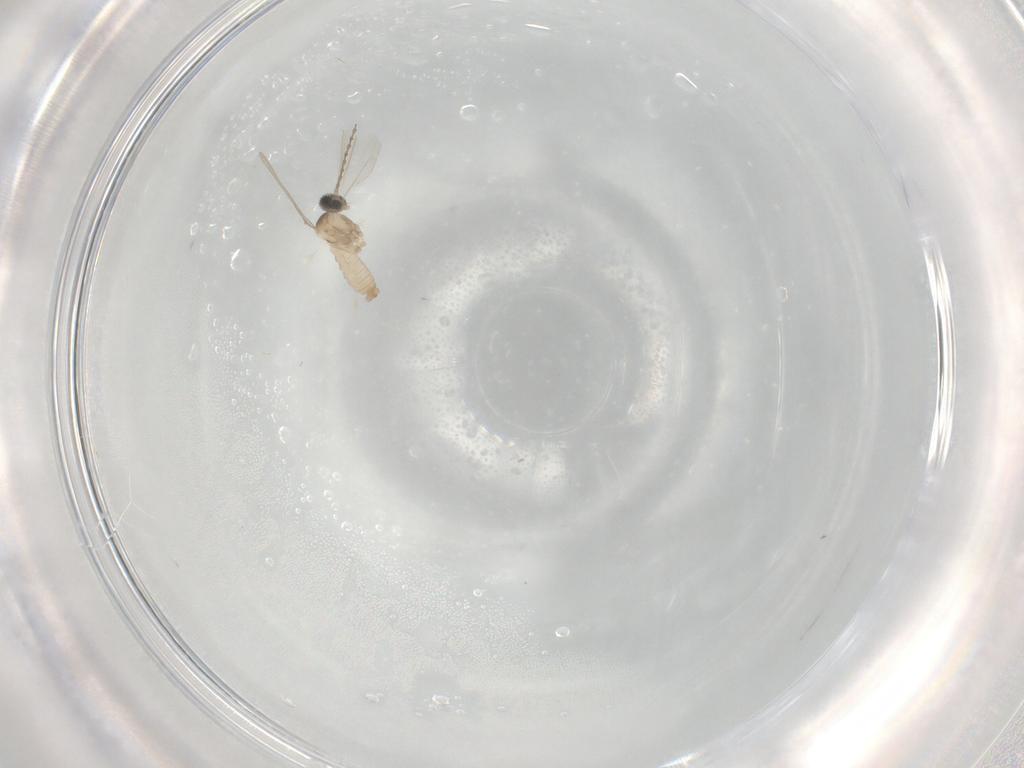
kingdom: Animalia
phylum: Arthropoda
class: Insecta
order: Diptera
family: Cecidomyiidae
